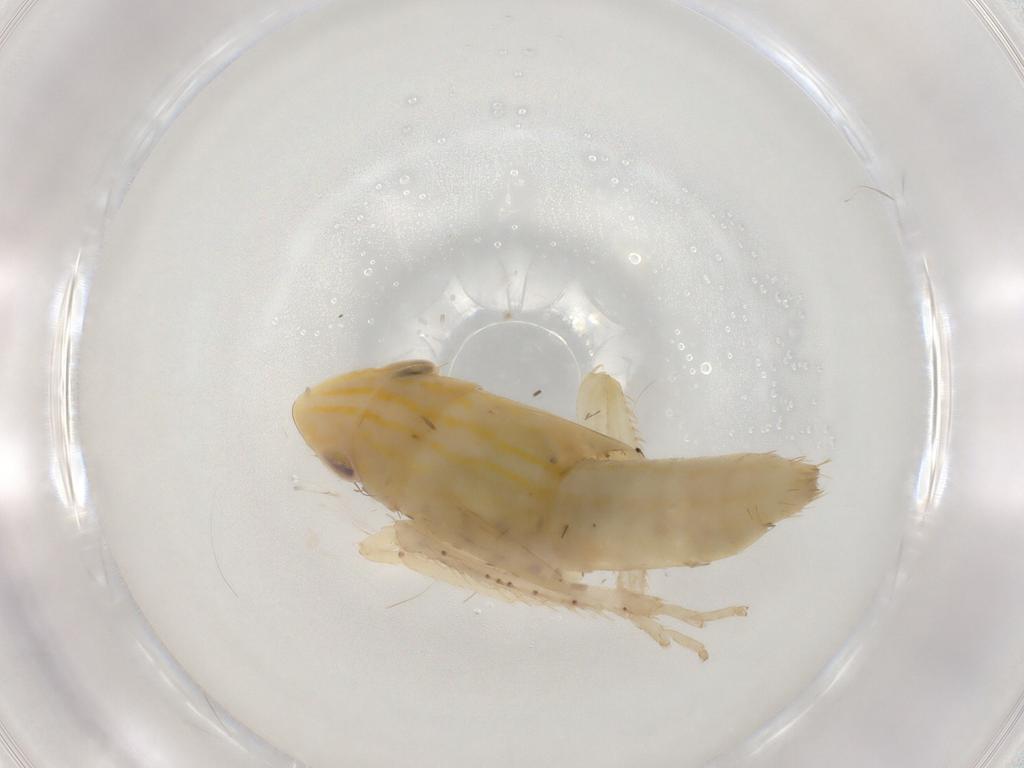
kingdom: Animalia
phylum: Arthropoda
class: Insecta
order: Hemiptera
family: Cicadellidae
